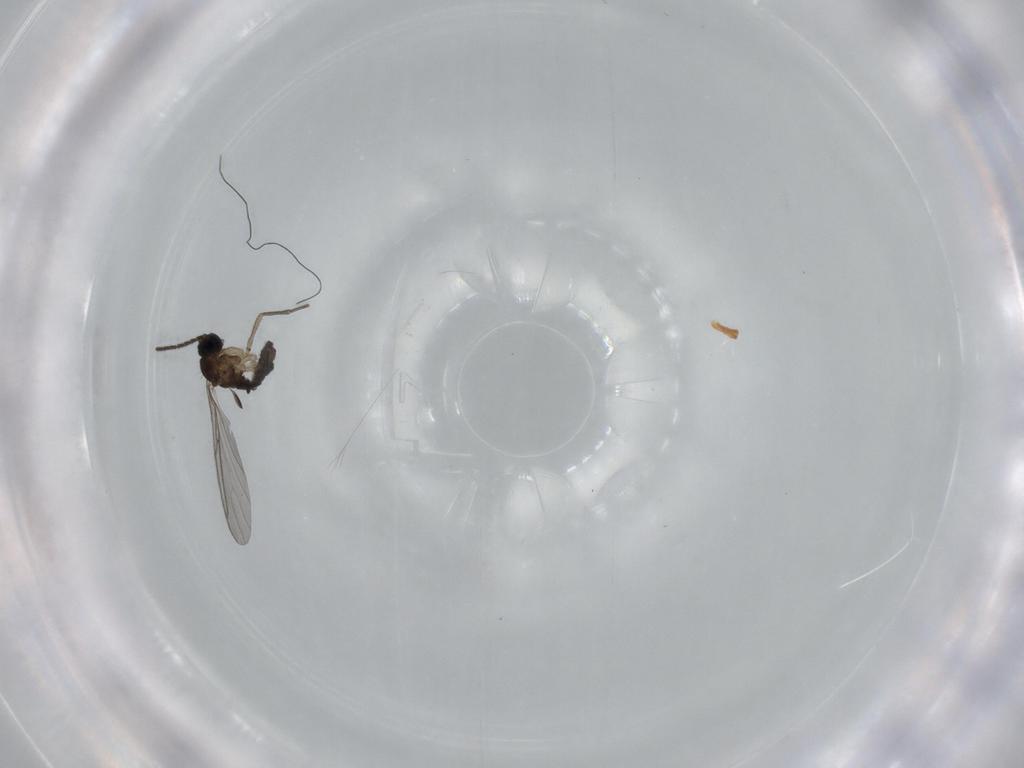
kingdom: Animalia
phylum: Arthropoda
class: Insecta
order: Diptera
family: Sciaridae
